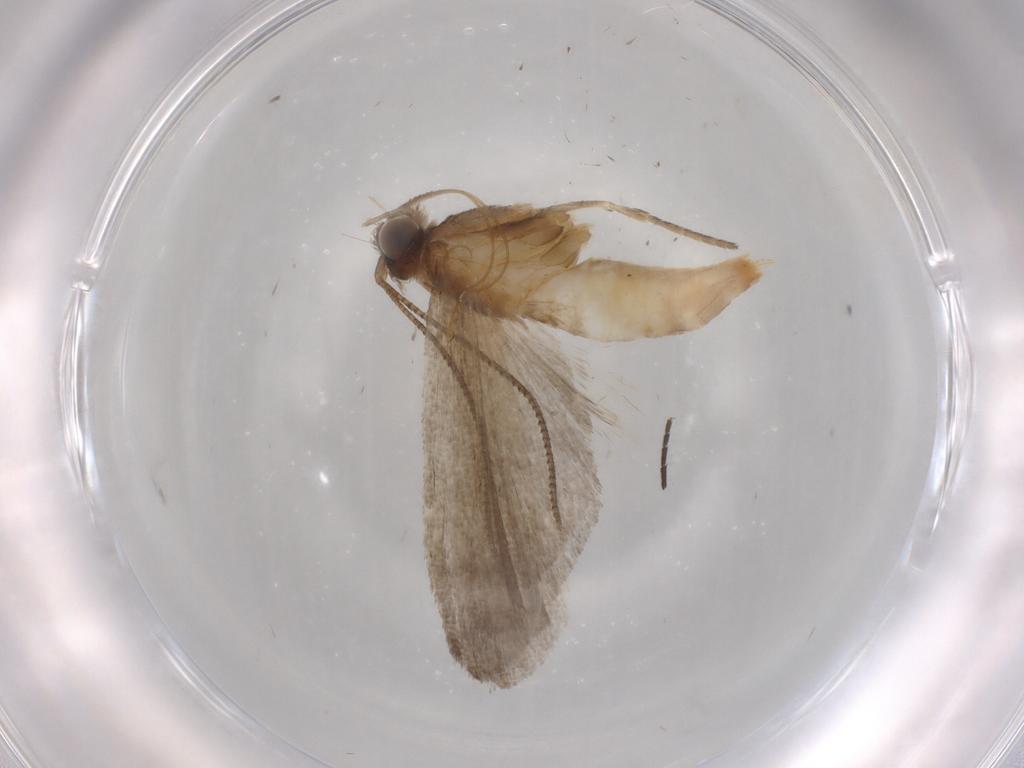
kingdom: Animalia
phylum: Arthropoda
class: Insecta
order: Lepidoptera
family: Noctuidae
